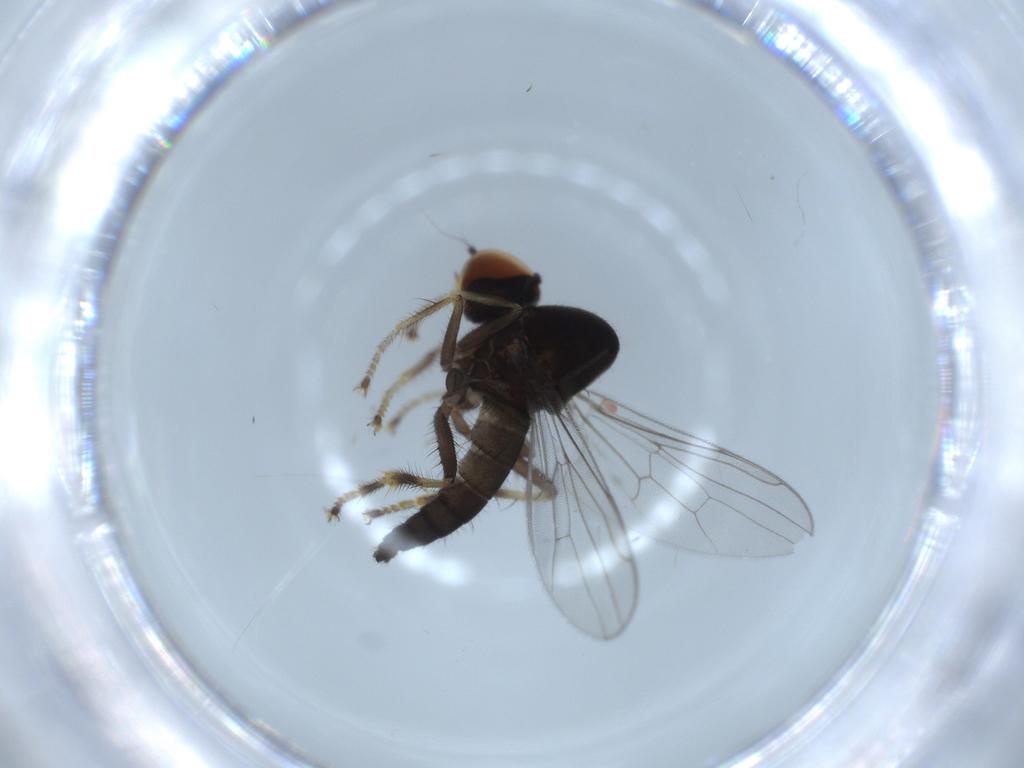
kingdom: Animalia
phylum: Arthropoda
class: Insecta
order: Diptera
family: Hybotidae
